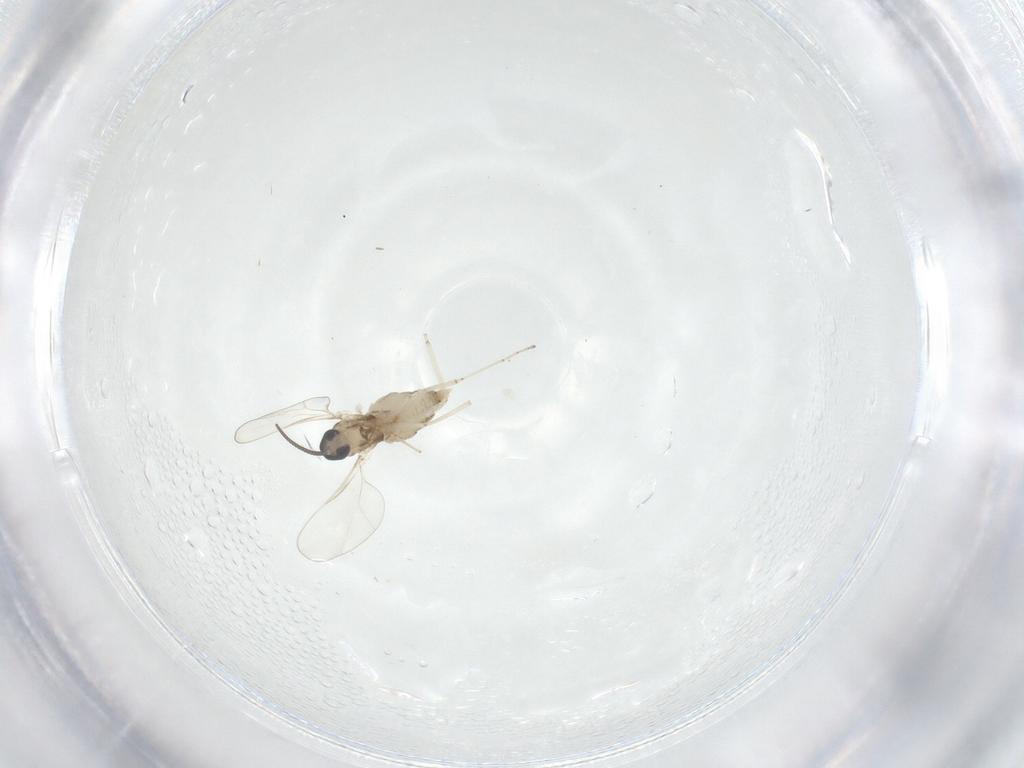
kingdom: Animalia
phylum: Arthropoda
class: Insecta
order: Diptera
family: Cecidomyiidae
